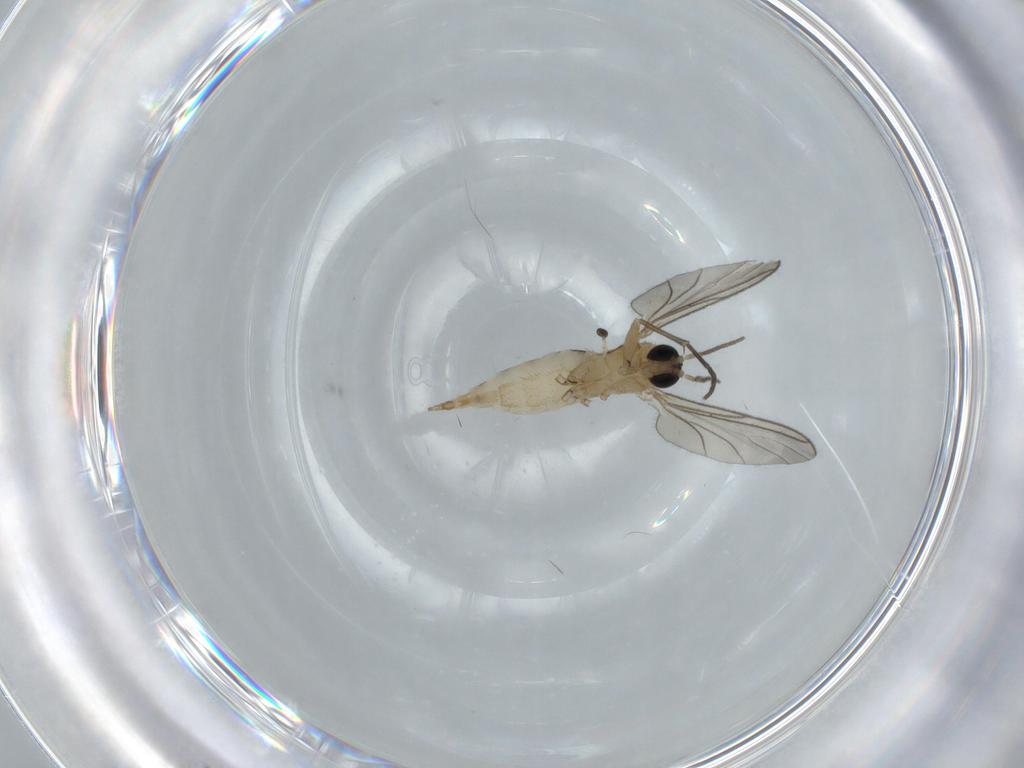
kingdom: Animalia
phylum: Arthropoda
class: Insecta
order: Diptera
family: Sciaridae
